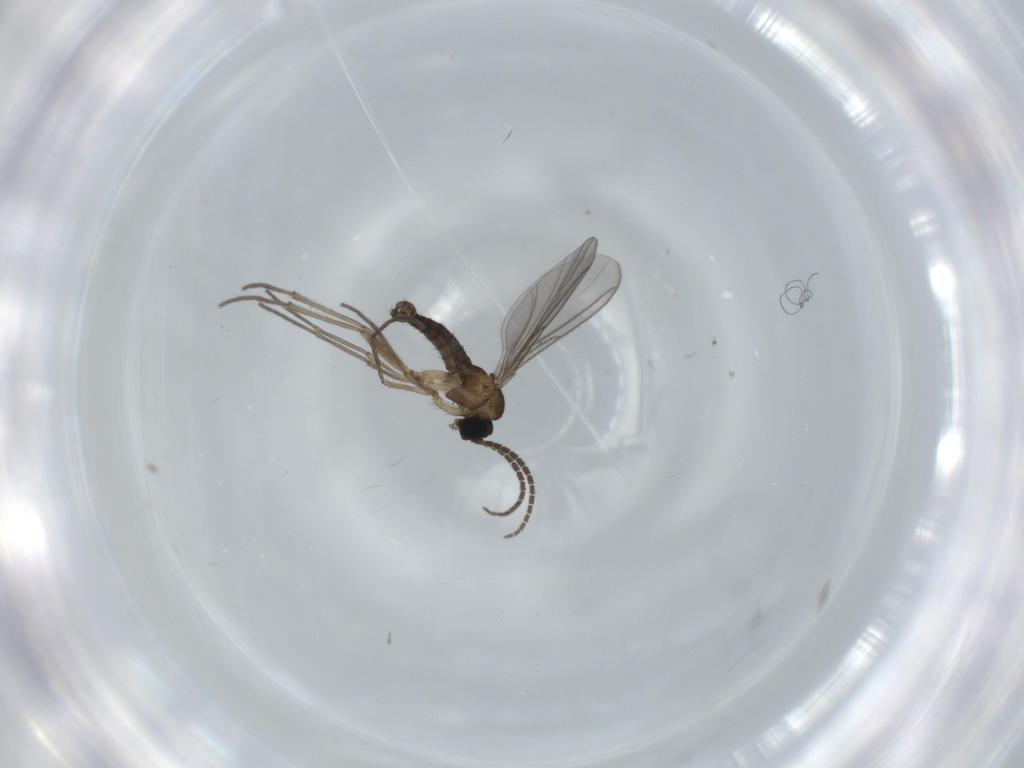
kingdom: Animalia
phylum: Arthropoda
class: Insecta
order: Diptera
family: Sciaridae
